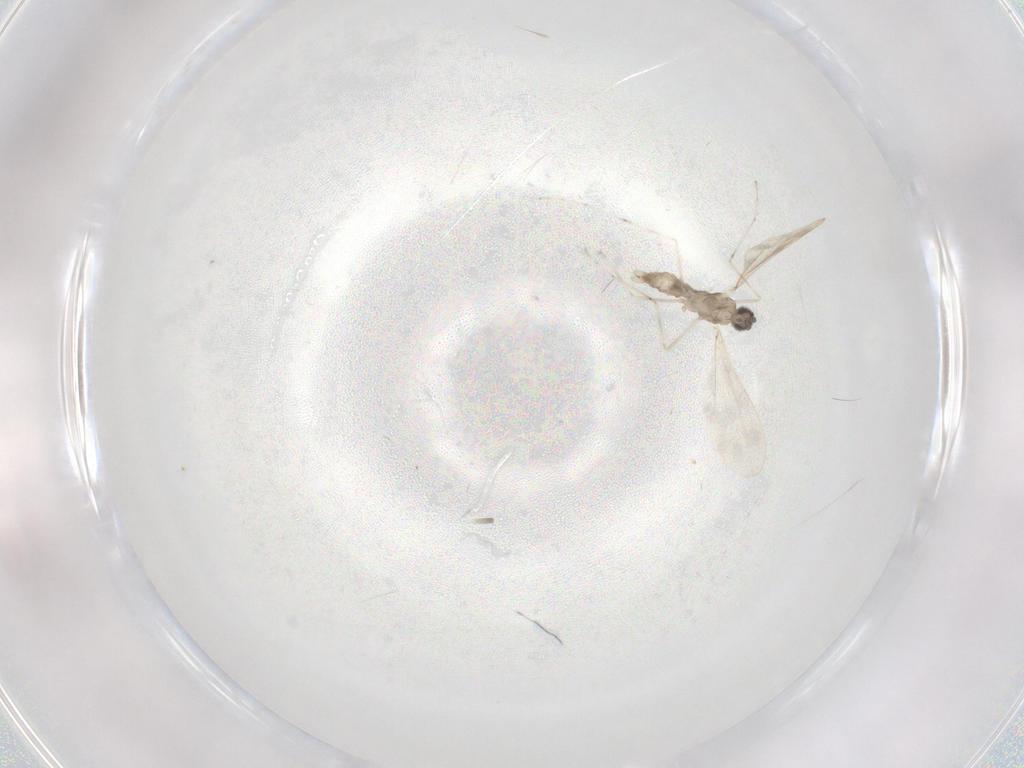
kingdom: Animalia
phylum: Arthropoda
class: Insecta
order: Diptera
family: Cecidomyiidae
